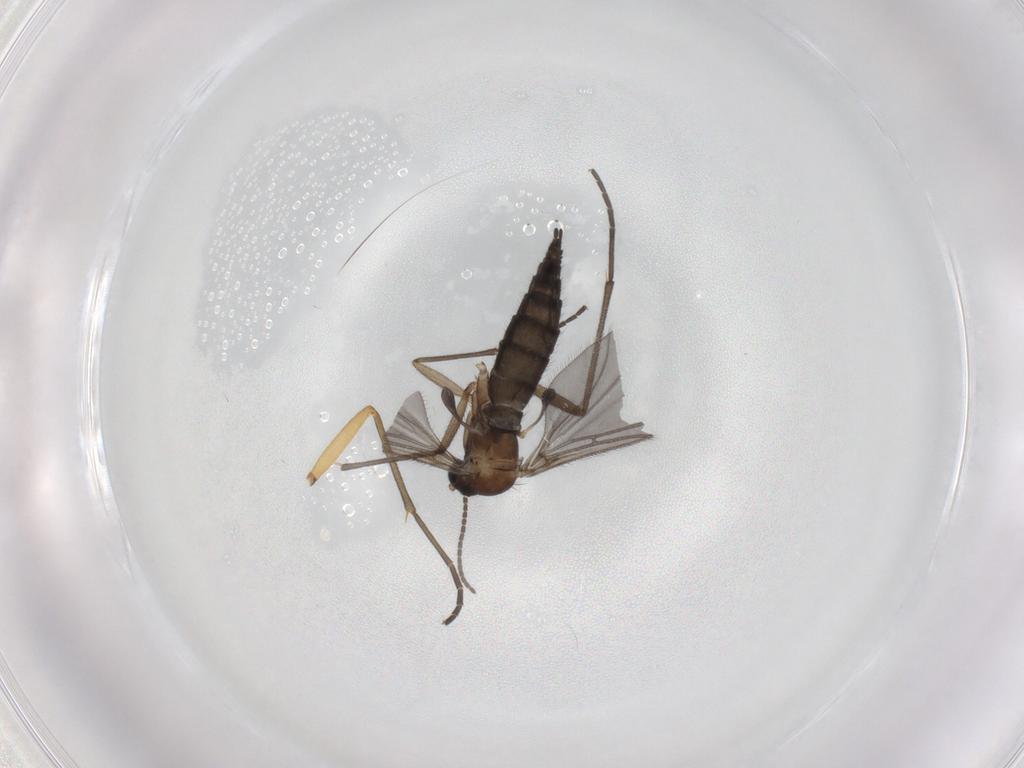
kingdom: Animalia
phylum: Arthropoda
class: Insecta
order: Diptera
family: Sciaridae
